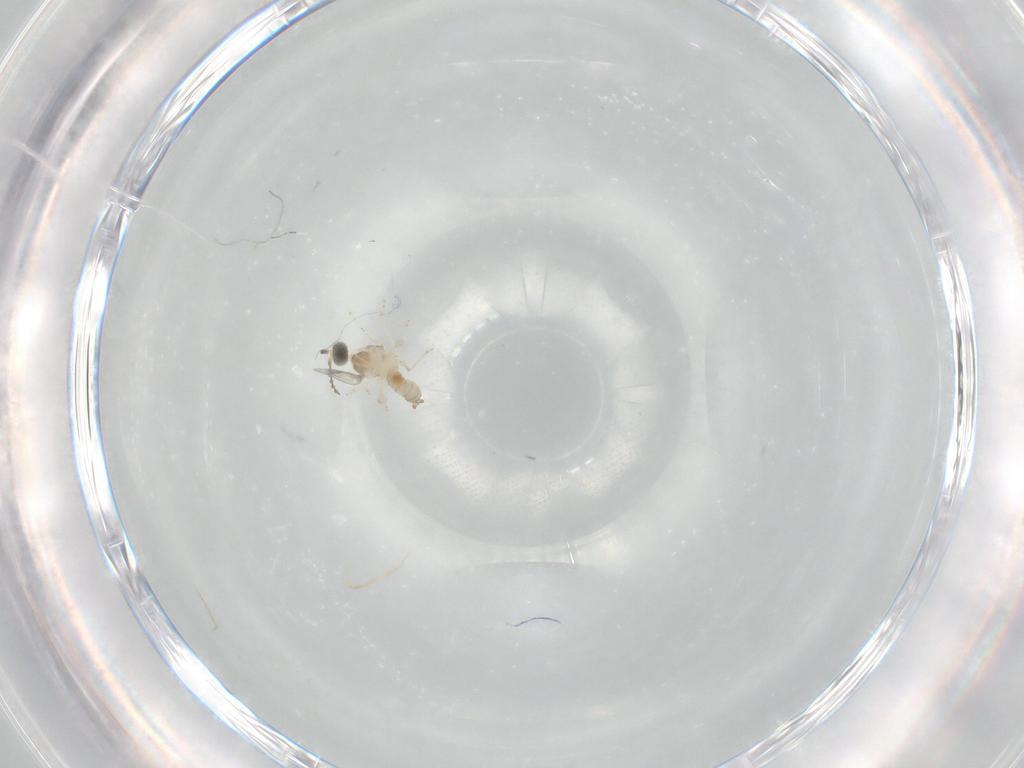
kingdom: Animalia
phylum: Arthropoda
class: Insecta
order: Diptera
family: Cecidomyiidae
